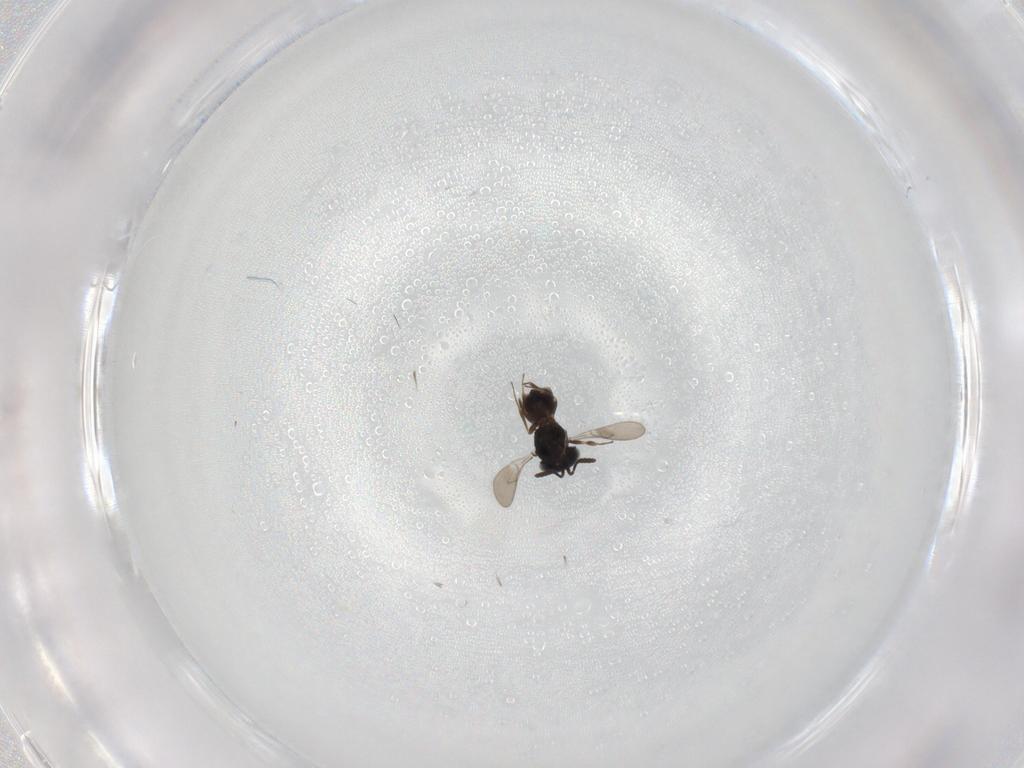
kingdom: Animalia
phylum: Arthropoda
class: Insecta
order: Hymenoptera
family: Scelionidae
